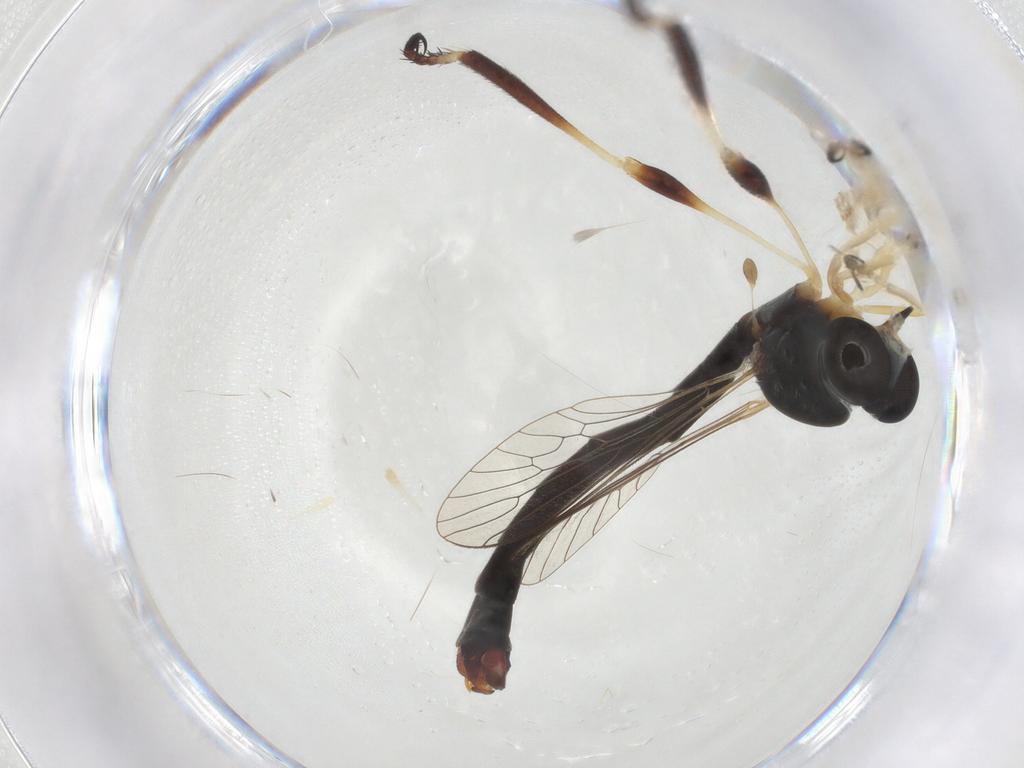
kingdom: Animalia
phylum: Arthropoda
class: Insecta
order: Diptera
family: Asilidae
